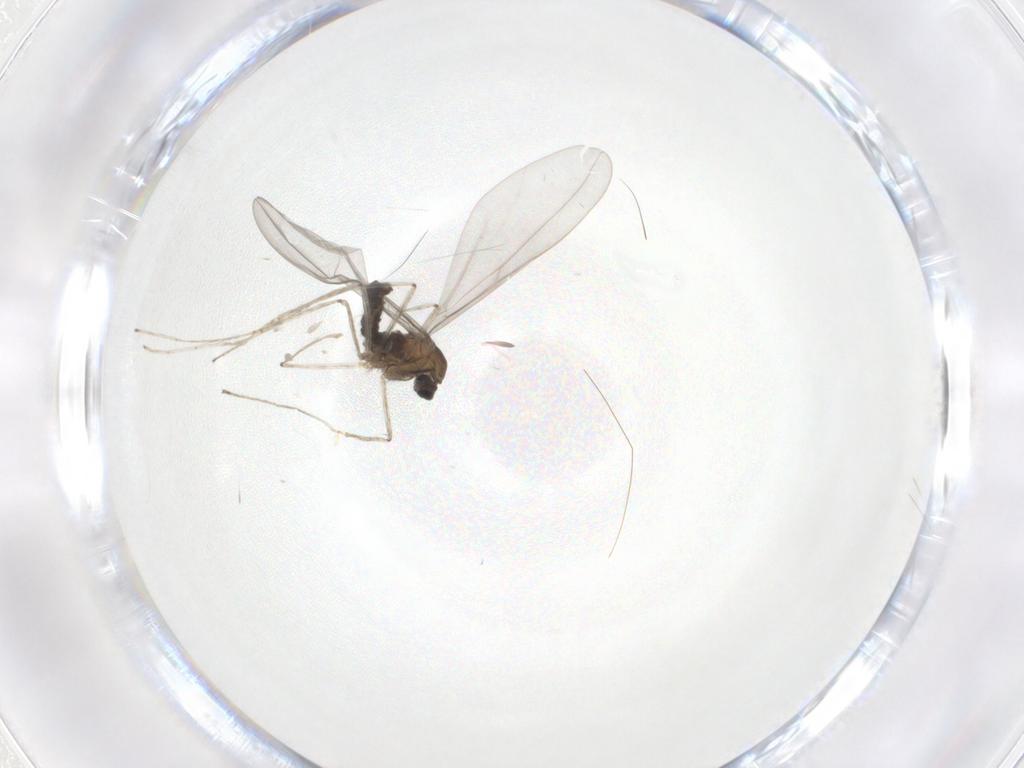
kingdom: Animalia
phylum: Arthropoda
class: Insecta
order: Diptera
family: Cecidomyiidae
